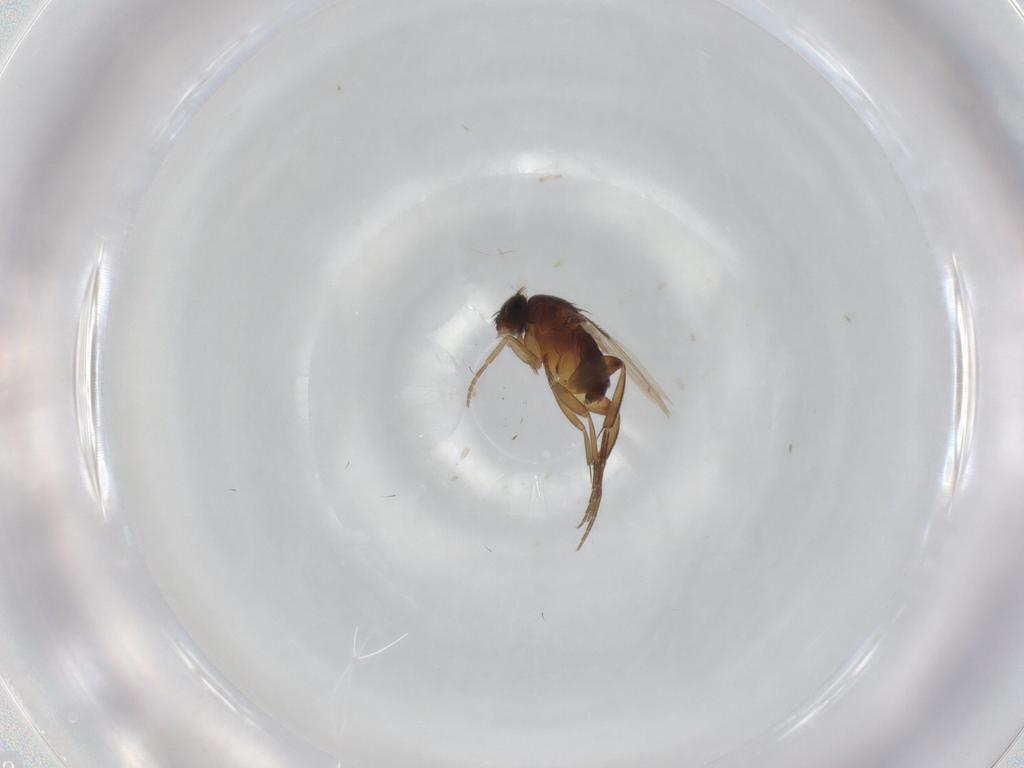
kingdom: Animalia
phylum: Arthropoda
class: Insecta
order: Diptera
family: Phoridae
